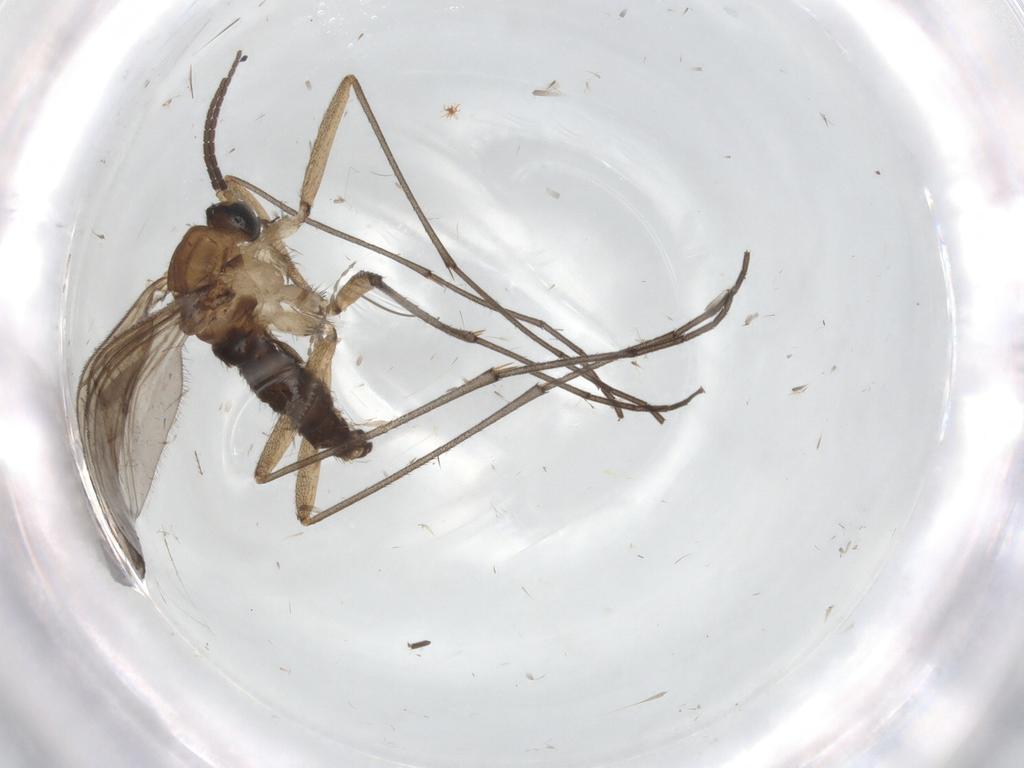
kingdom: Animalia
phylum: Arthropoda
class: Insecta
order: Diptera
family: Sciaridae
